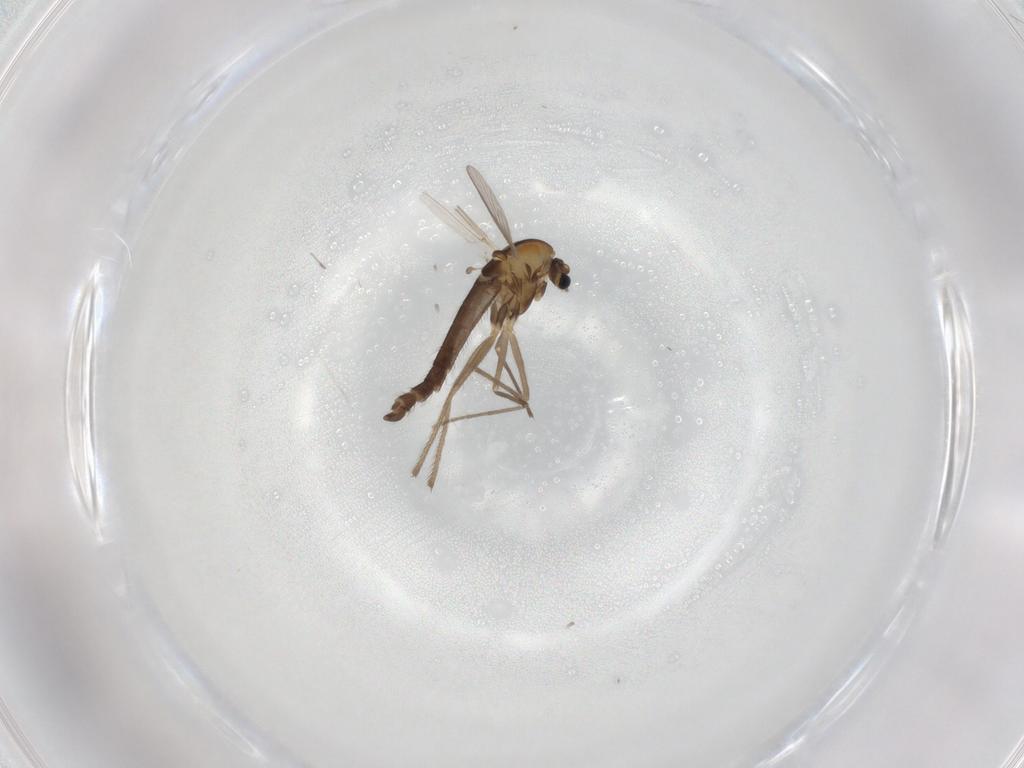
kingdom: Animalia
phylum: Arthropoda
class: Insecta
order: Diptera
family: Chironomidae
